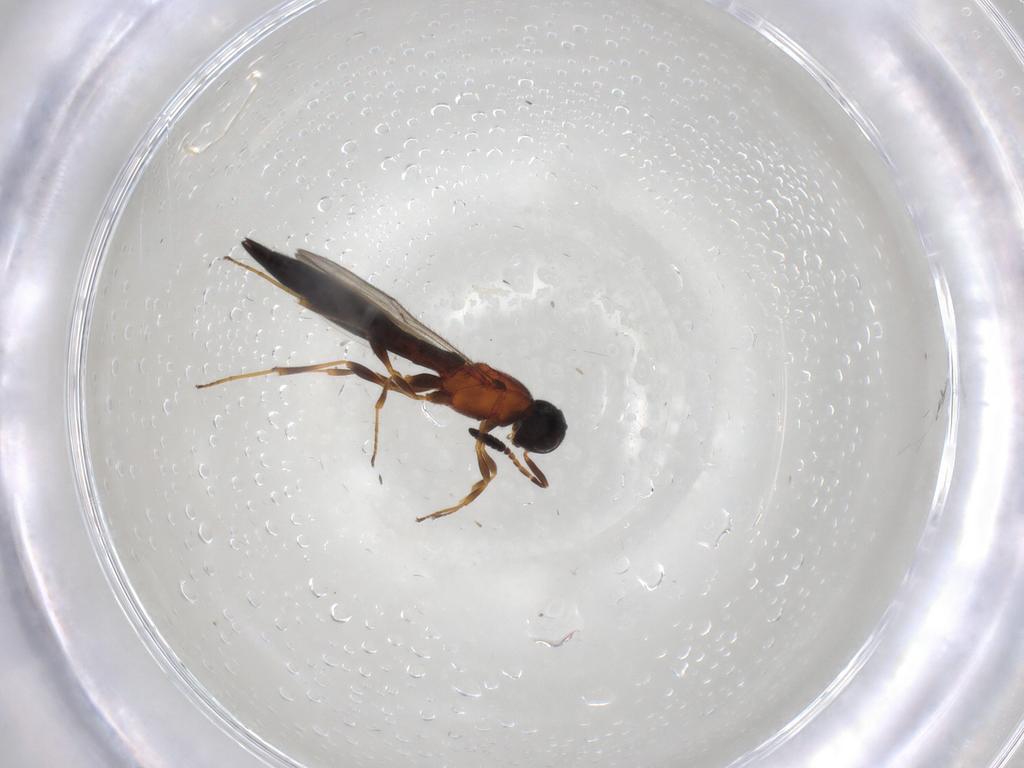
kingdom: Animalia
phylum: Arthropoda
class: Insecta
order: Hymenoptera
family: Scelionidae
